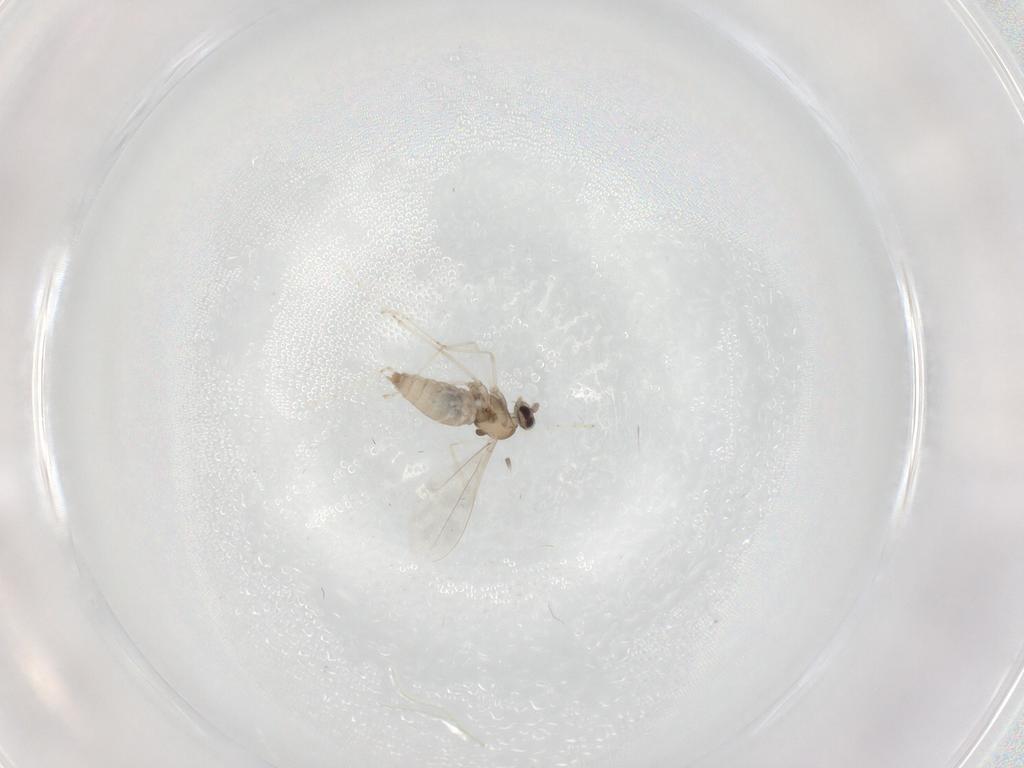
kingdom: Animalia
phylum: Arthropoda
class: Insecta
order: Diptera
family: Cecidomyiidae
